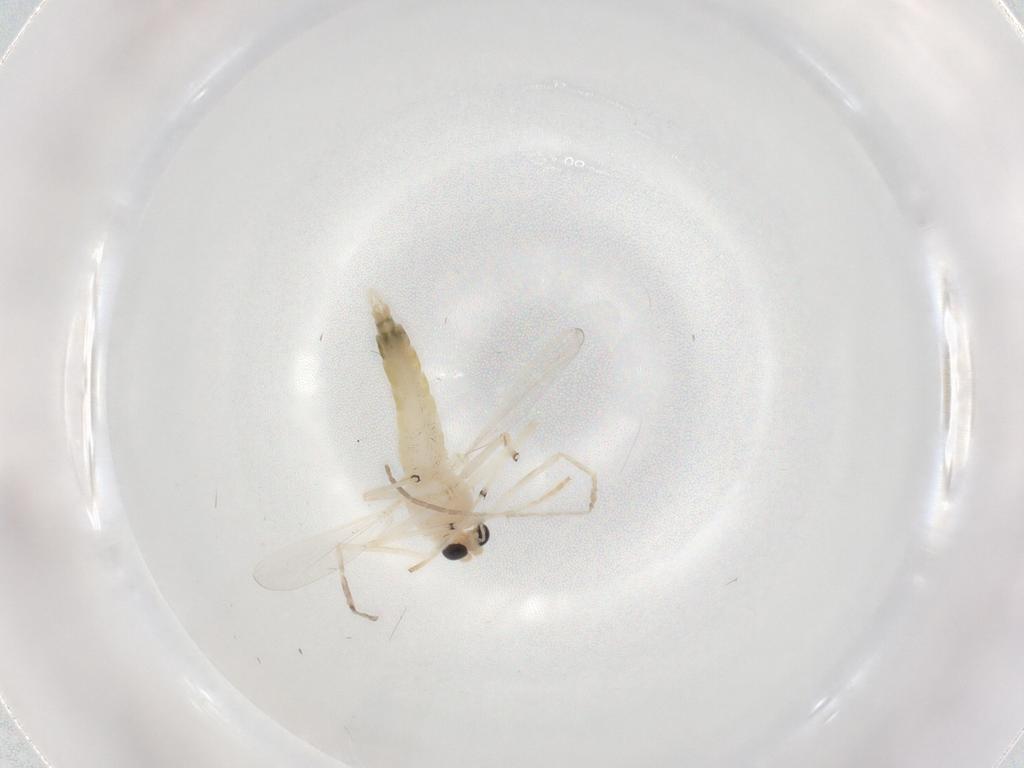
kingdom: Animalia
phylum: Arthropoda
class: Insecta
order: Diptera
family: Chironomidae
